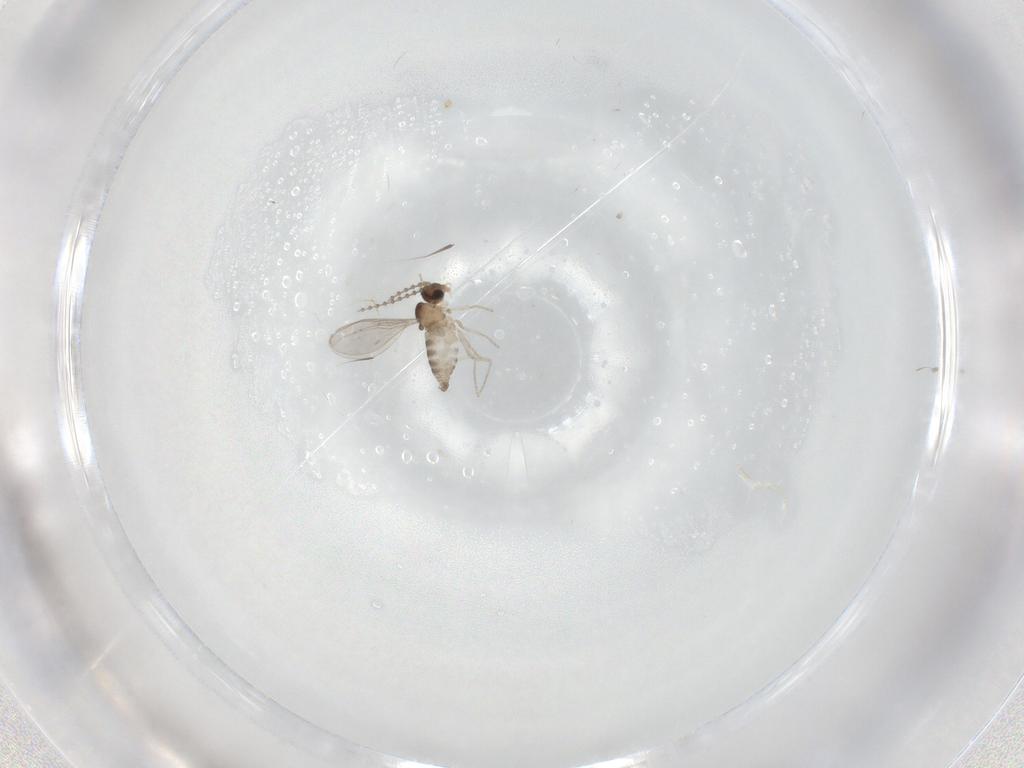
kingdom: Animalia
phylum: Arthropoda
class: Insecta
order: Diptera
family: Cecidomyiidae
